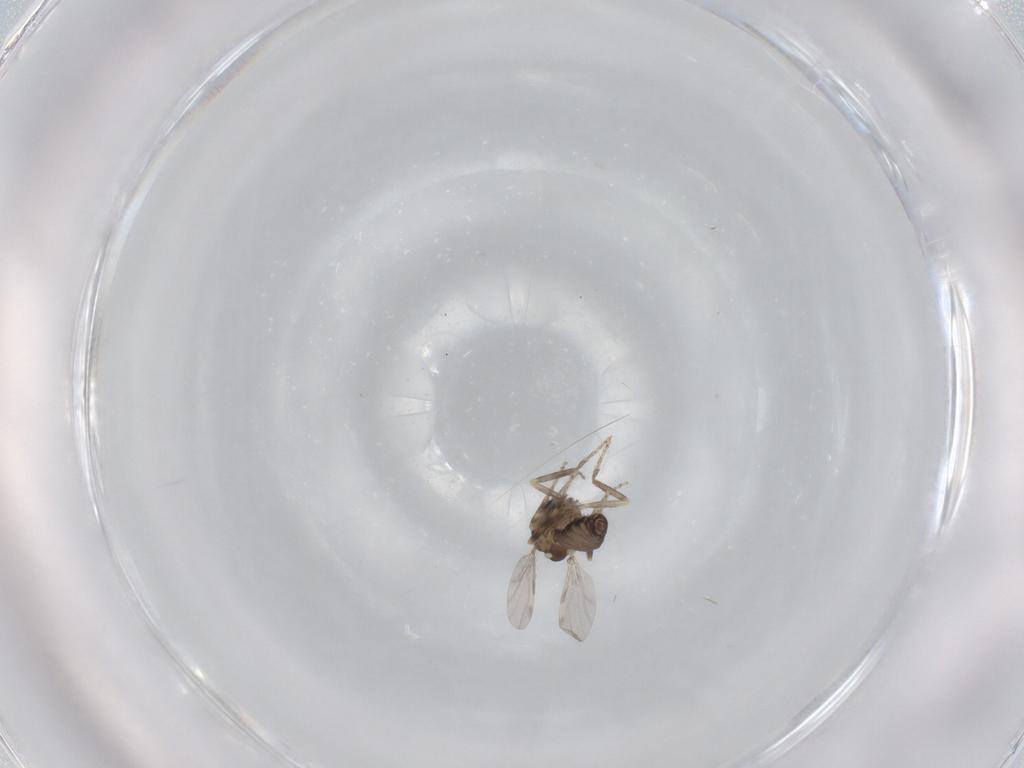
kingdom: Animalia
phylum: Arthropoda
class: Insecta
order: Diptera
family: Ceratopogonidae
